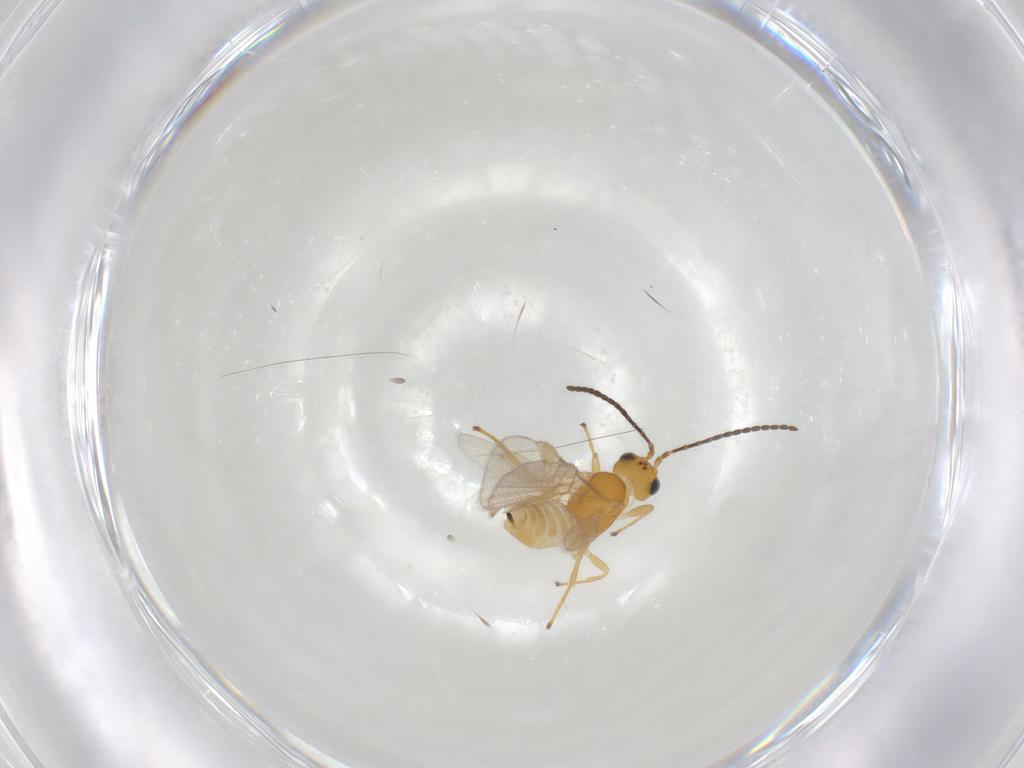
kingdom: Animalia
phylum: Arthropoda
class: Insecta
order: Hymenoptera
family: Braconidae
